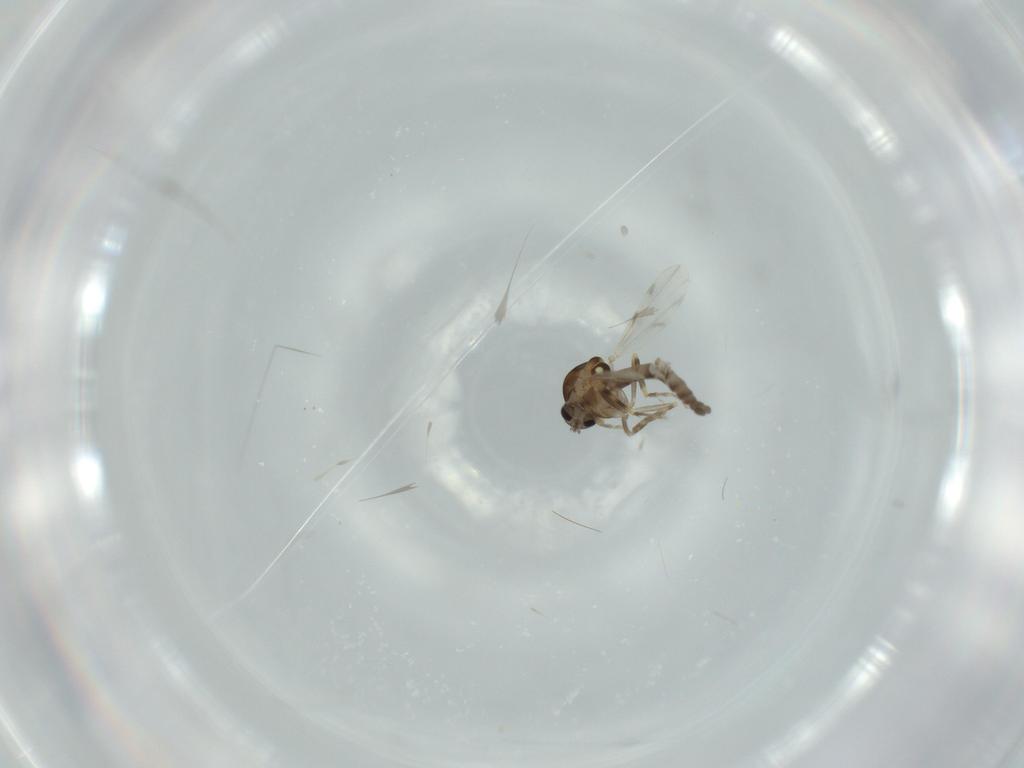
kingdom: Animalia
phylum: Arthropoda
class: Insecta
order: Diptera
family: Ceratopogonidae
